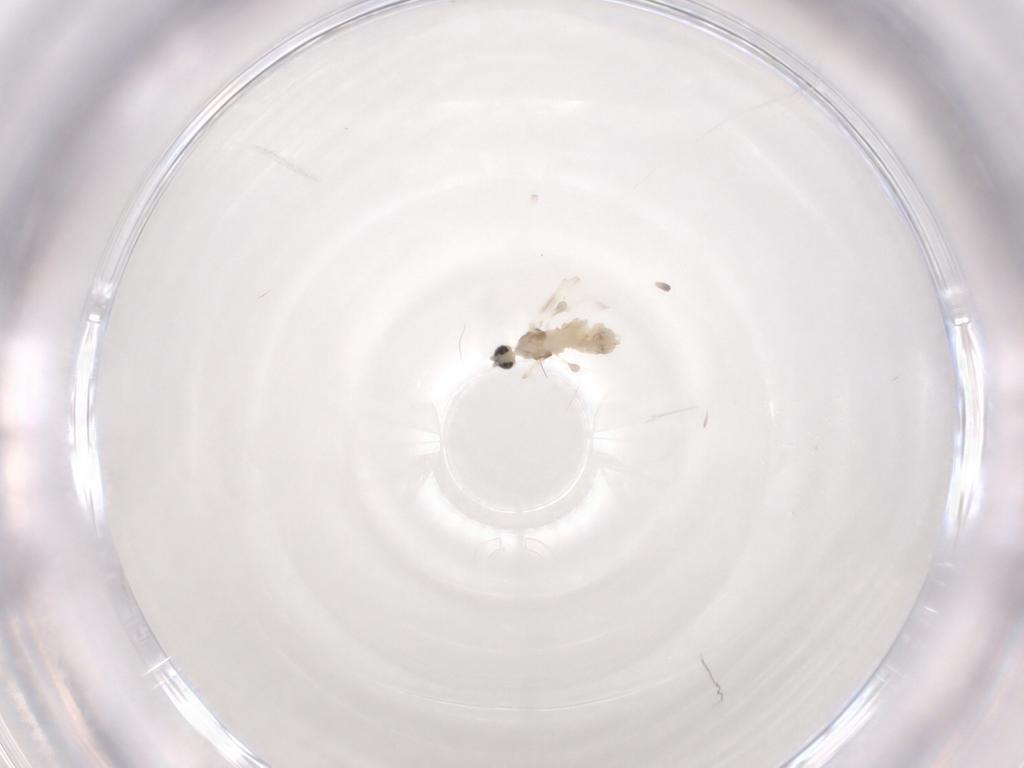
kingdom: Animalia
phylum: Arthropoda
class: Insecta
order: Diptera
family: Cecidomyiidae
